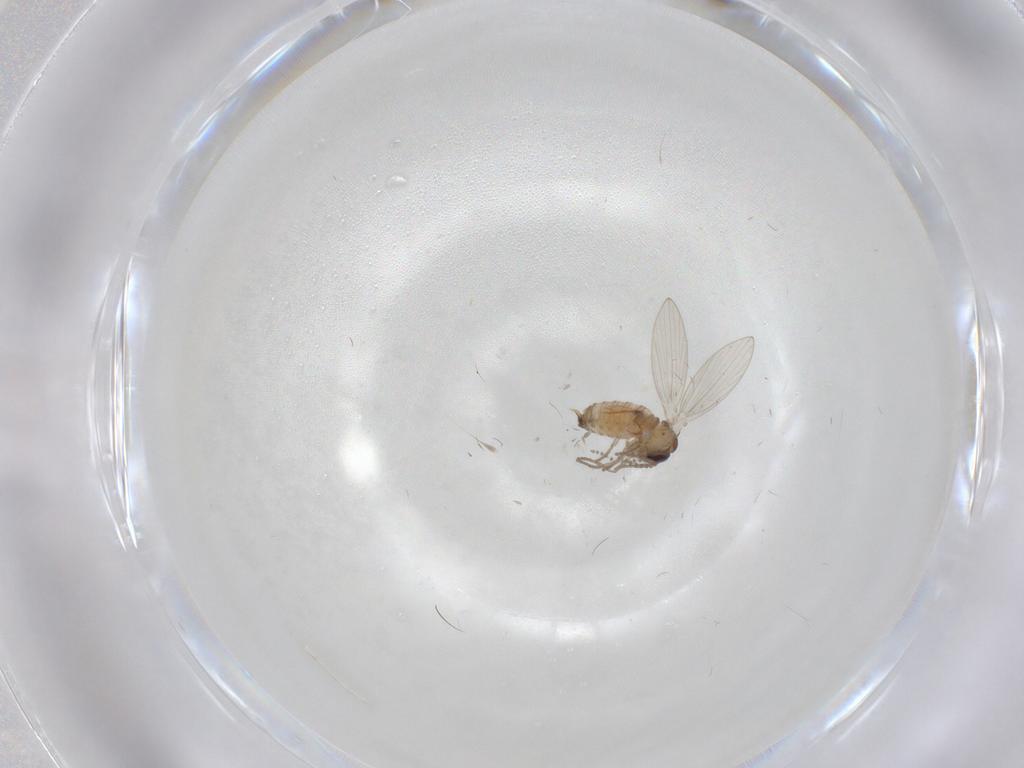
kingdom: Animalia
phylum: Arthropoda
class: Insecta
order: Diptera
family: Psychodidae
